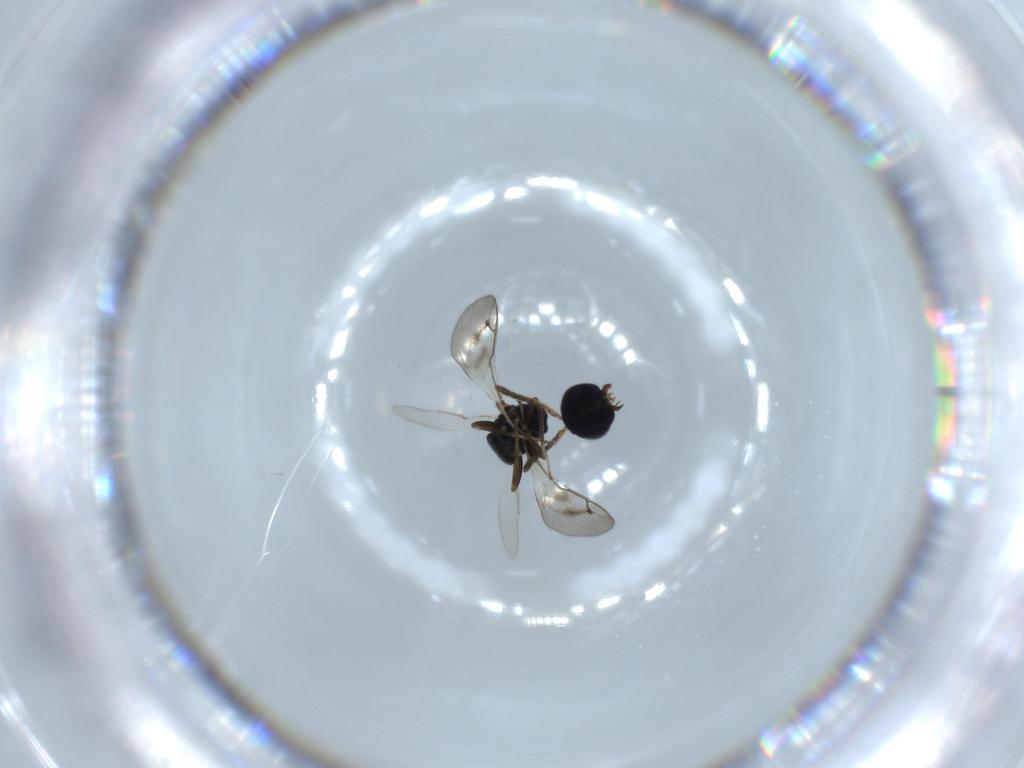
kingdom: Animalia
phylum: Arthropoda
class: Insecta
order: Hymenoptera
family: Pteromalidae
